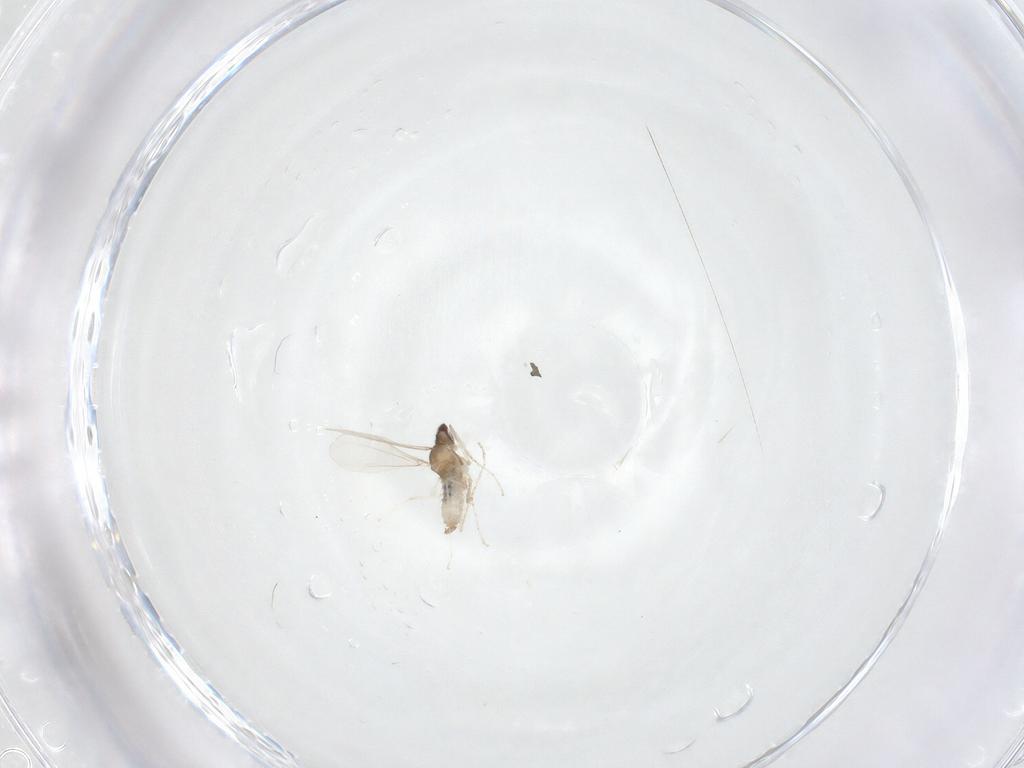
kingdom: Animalia
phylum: Arthropoda
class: Insecta
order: Diptera
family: Cecidomyiidae
